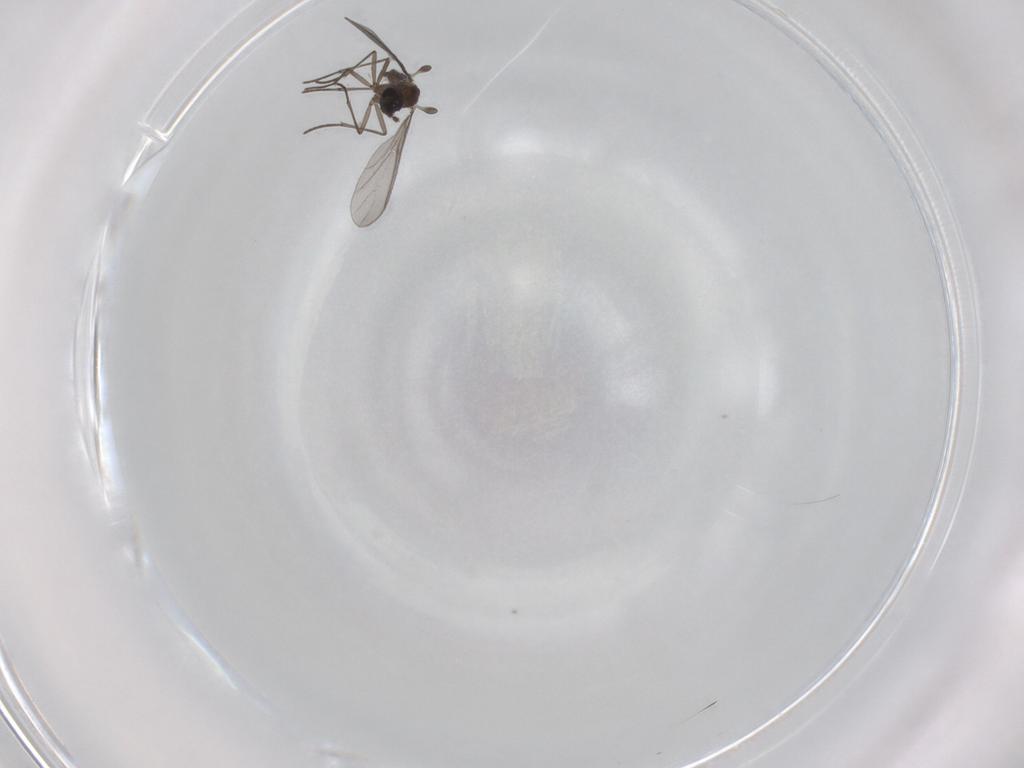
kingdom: Animalia
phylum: Arthropoda
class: Insecta
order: Diptera
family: Cecidomyiidae
